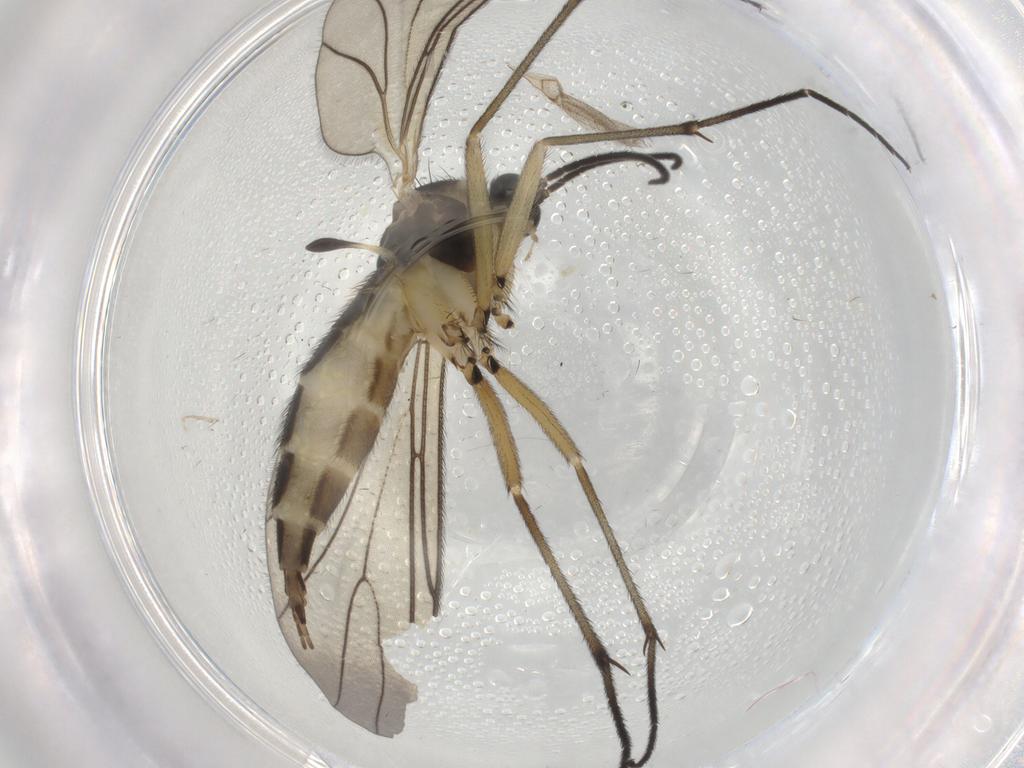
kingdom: Animalia
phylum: Arthropoda
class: Insecta
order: Diptera
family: Sciaridae
